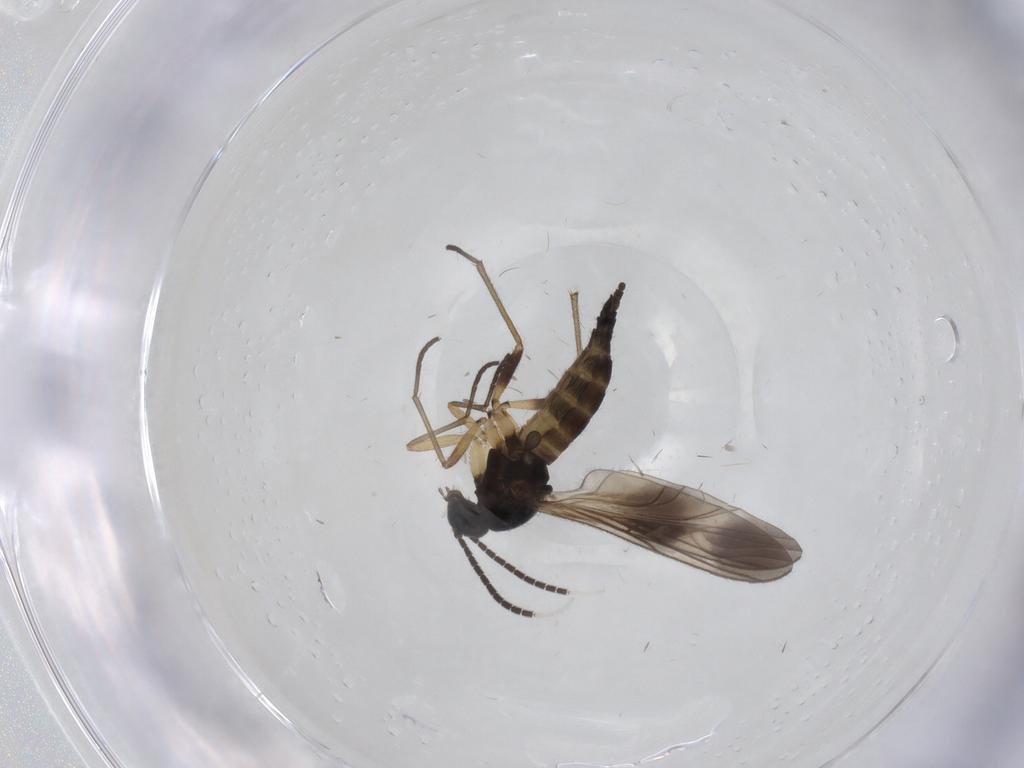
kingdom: Animalia
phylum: Arthropoda
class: Insecta
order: Diptera
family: Sciaridae
